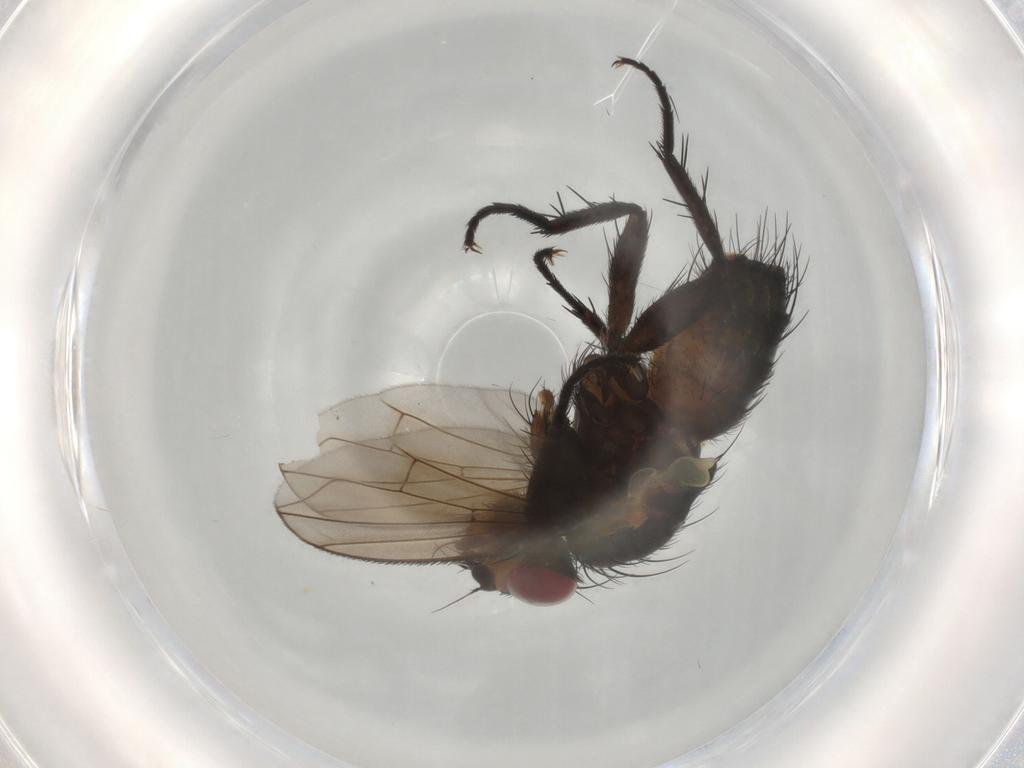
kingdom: Animalia
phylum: Arthropoda
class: Insecta
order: Diptera
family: Tachinidae
